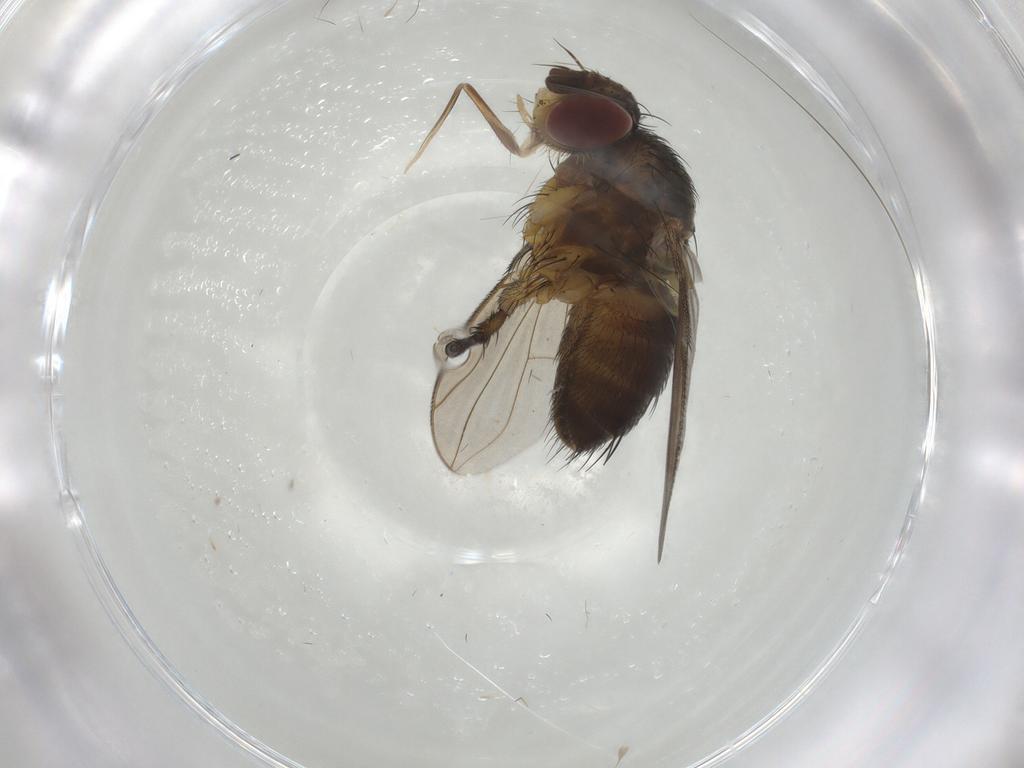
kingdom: Animalia
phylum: Arthropoda
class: Insecta
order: Diptera
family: Tachinidae
